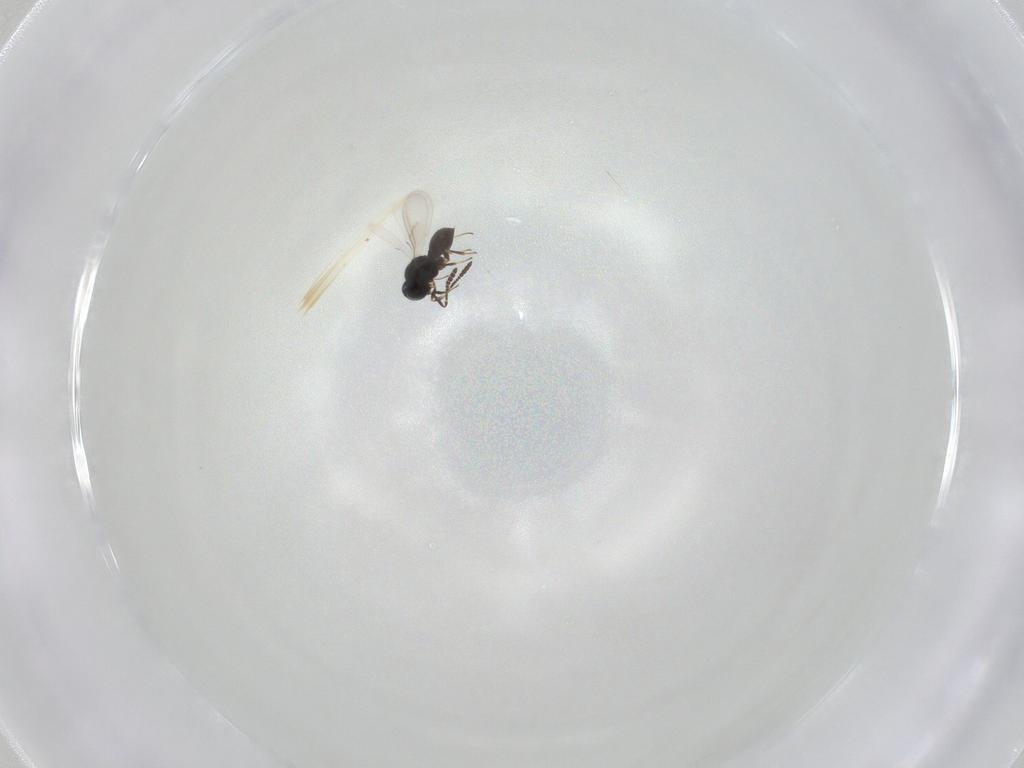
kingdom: Animalia
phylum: Arthropoda
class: Insecta
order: Hymenoptera
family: Scelionidae
